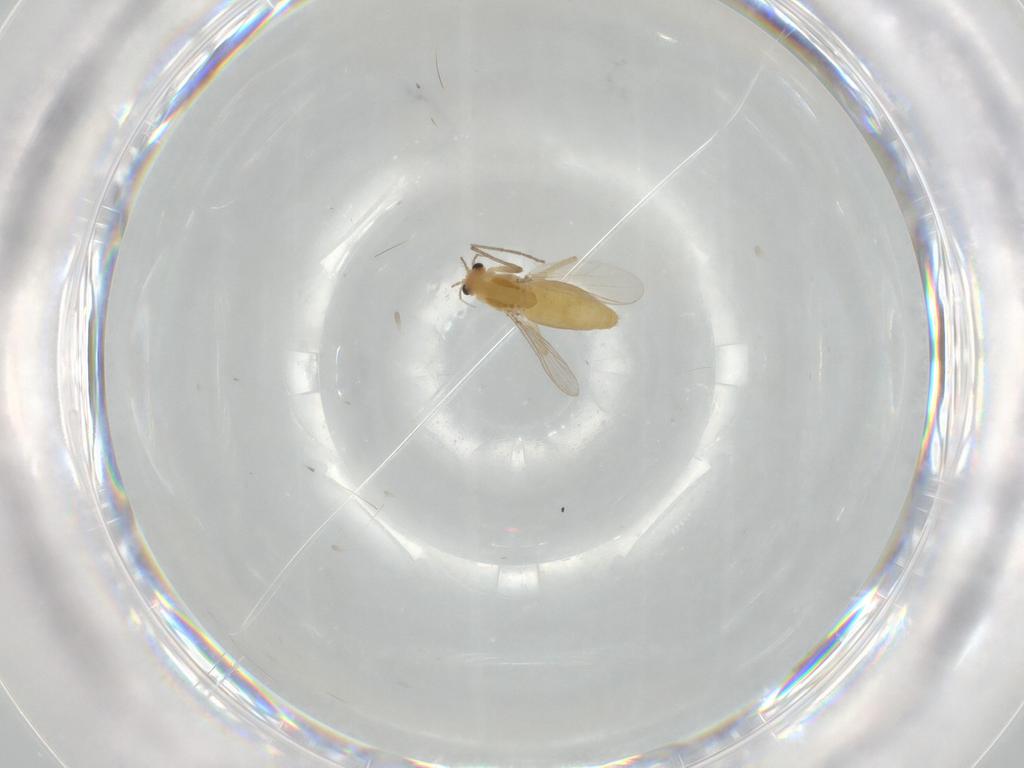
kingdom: Animalia
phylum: Arthropoda
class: Insecta
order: Diptera
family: Chironomidae
